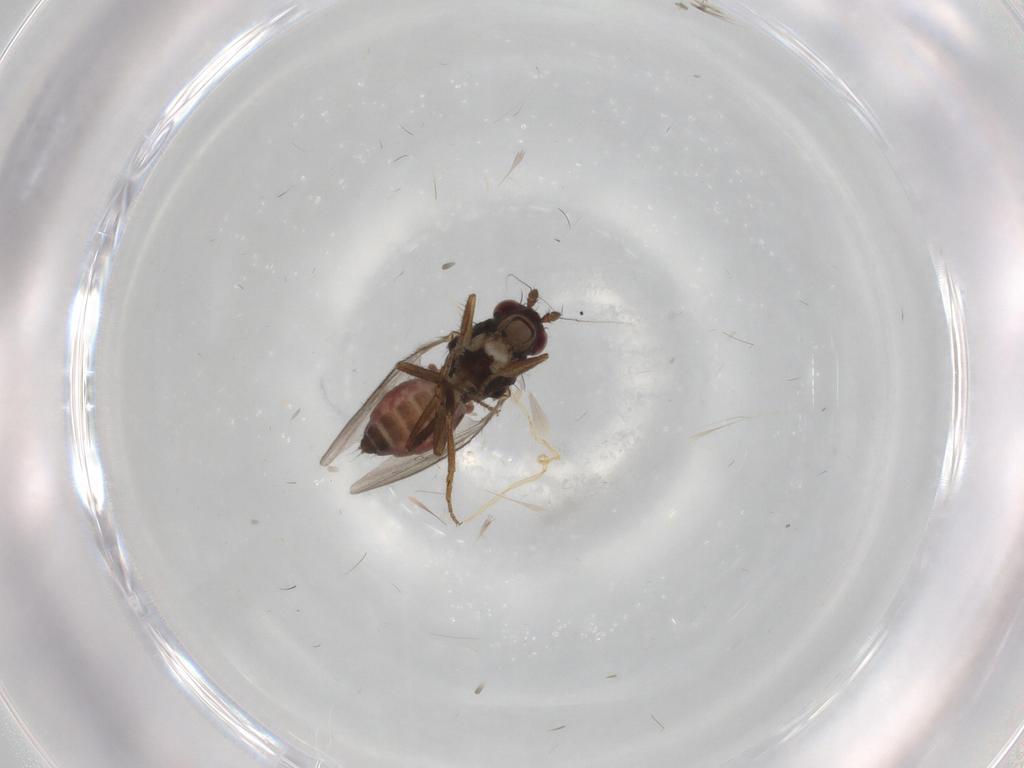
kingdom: Animalia
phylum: Arthropoda
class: Insecta
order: Diptera
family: Sphaeroceridae
